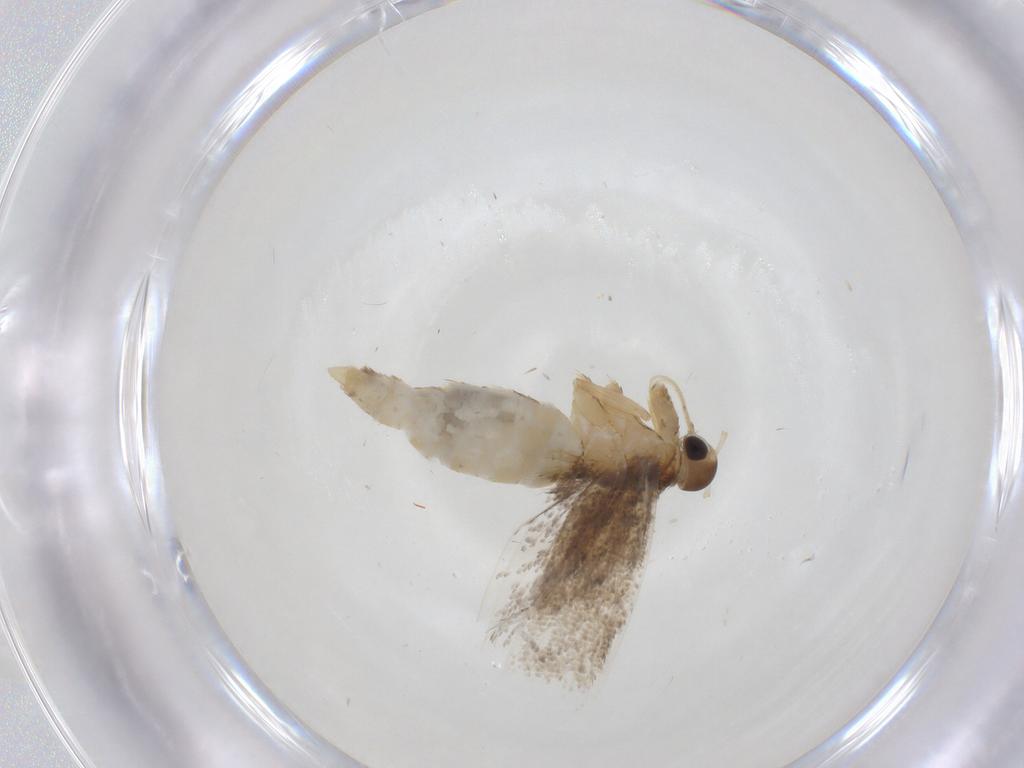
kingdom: Animalia
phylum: Arthropoda
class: Insecta
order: Lepidoptera
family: Oecophoridae
